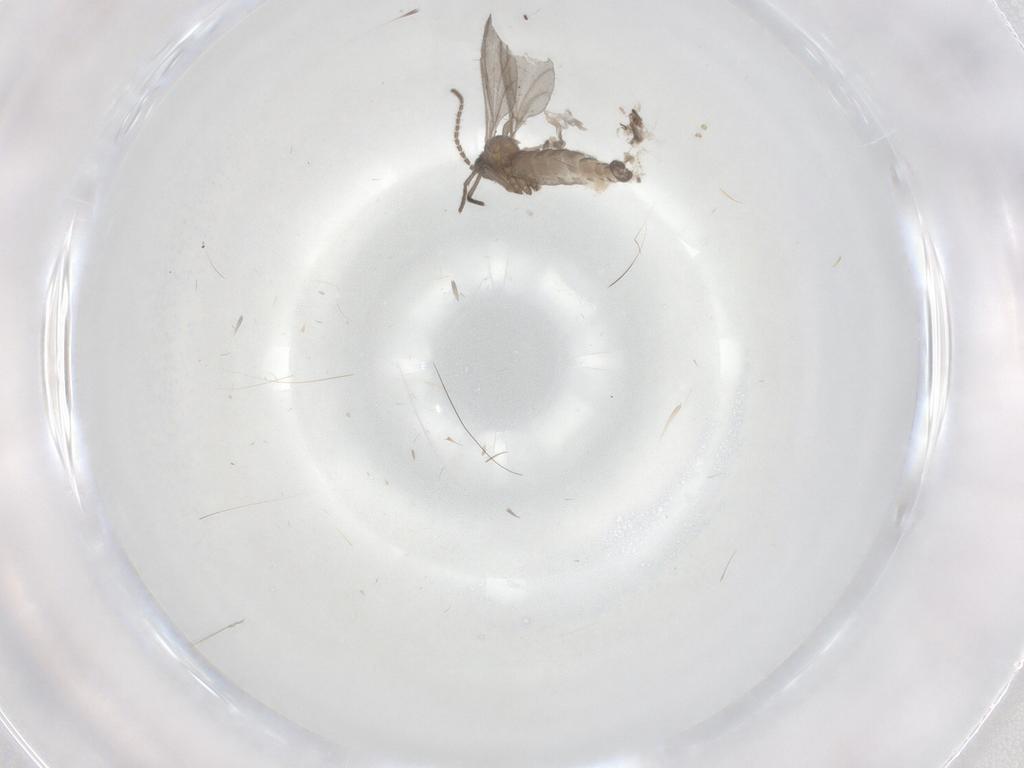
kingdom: Animalia
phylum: Arthropoda
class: Insecta
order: Diptera
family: Psychodidae
